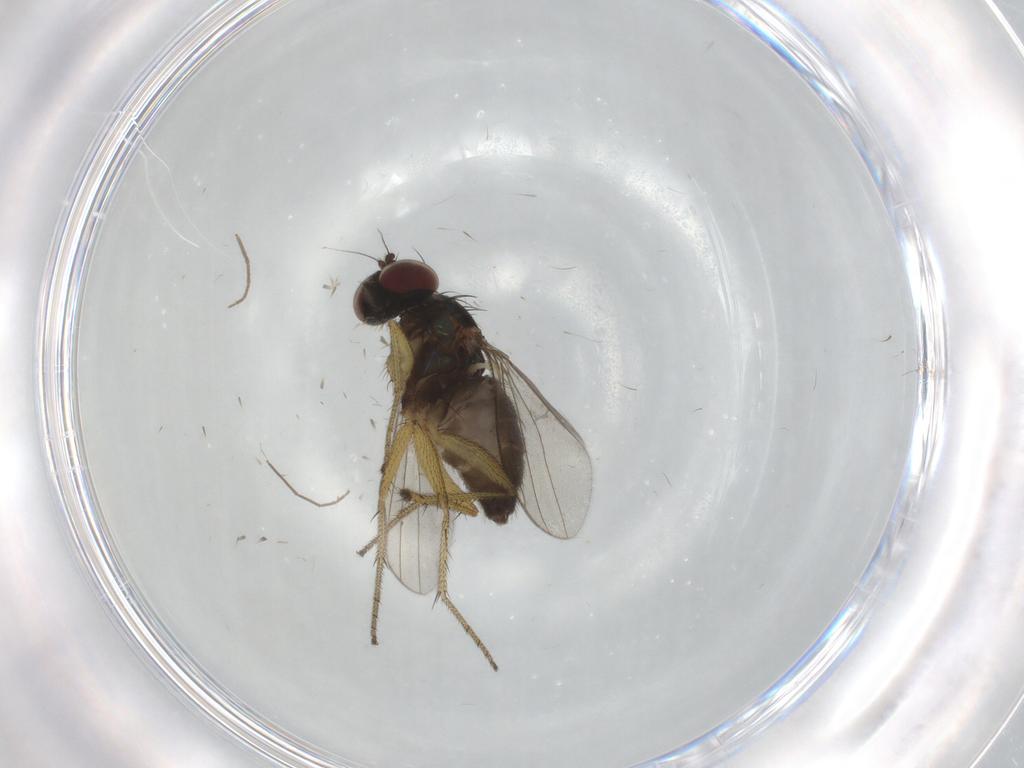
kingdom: Animalia
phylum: Arthropoda
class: Insecta
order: Diptera
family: Dolichopodidae
